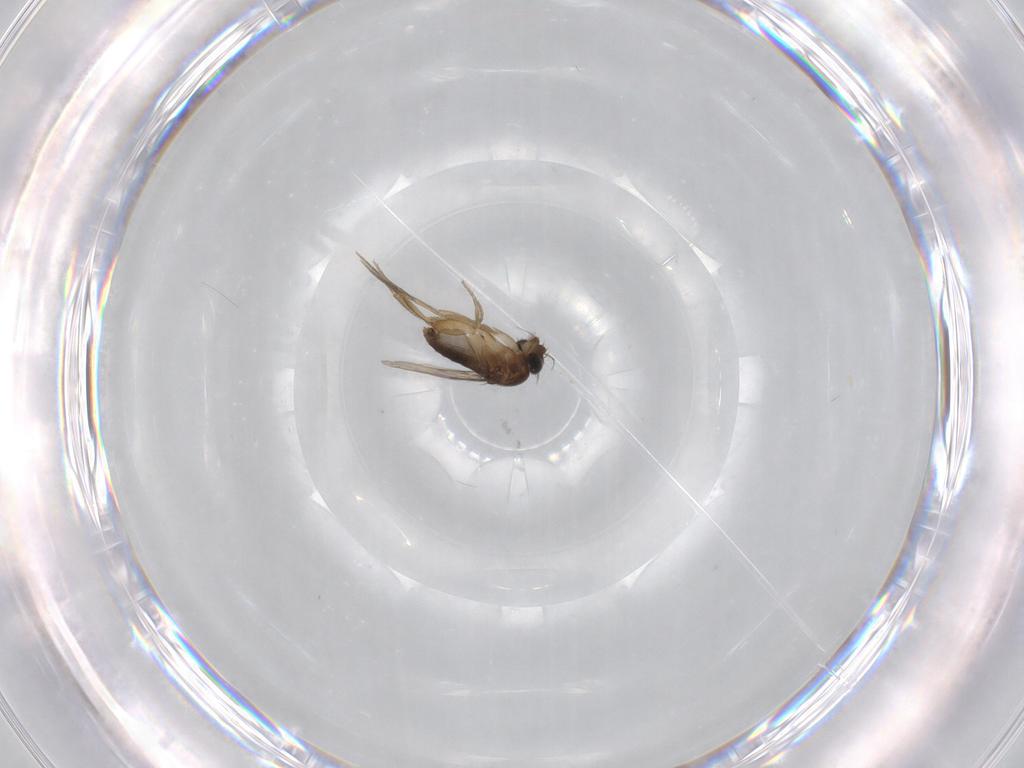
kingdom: Animalia
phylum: Arthropoda
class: Insecta
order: Diptera
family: Phoridae
